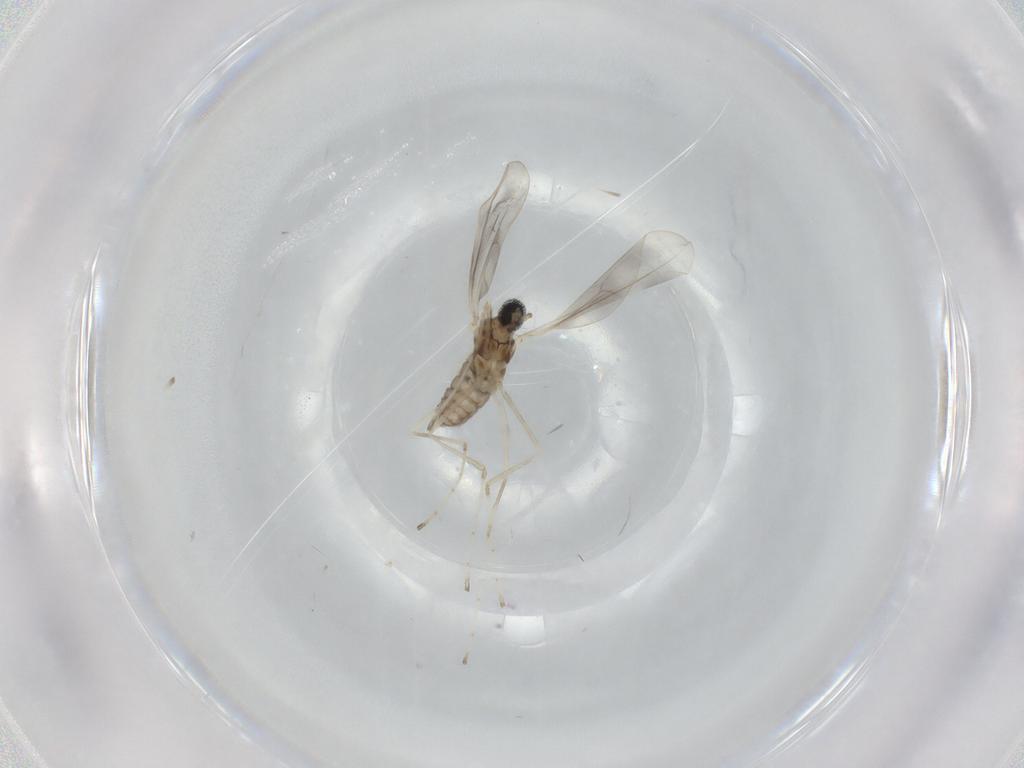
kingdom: Animalia
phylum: Arthropoda
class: Insecta
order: Diptera
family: Cecidomyiidae
